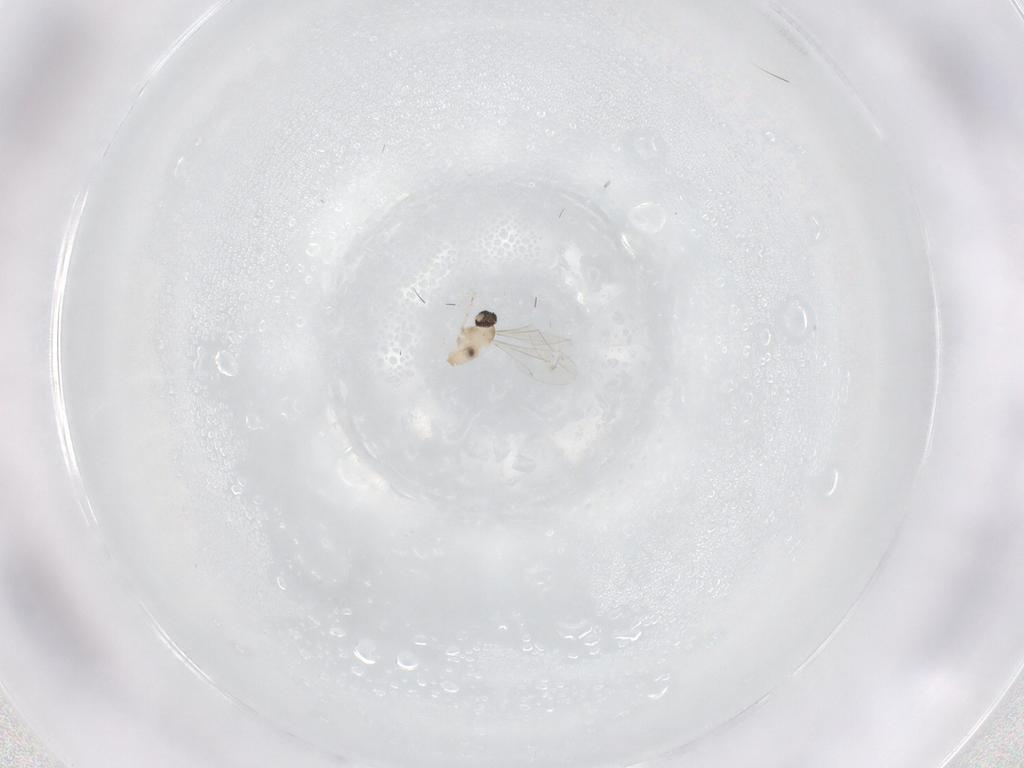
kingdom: Animalia
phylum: Arthropoda
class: Insecta
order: Diptera
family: Cecidomyiidae
